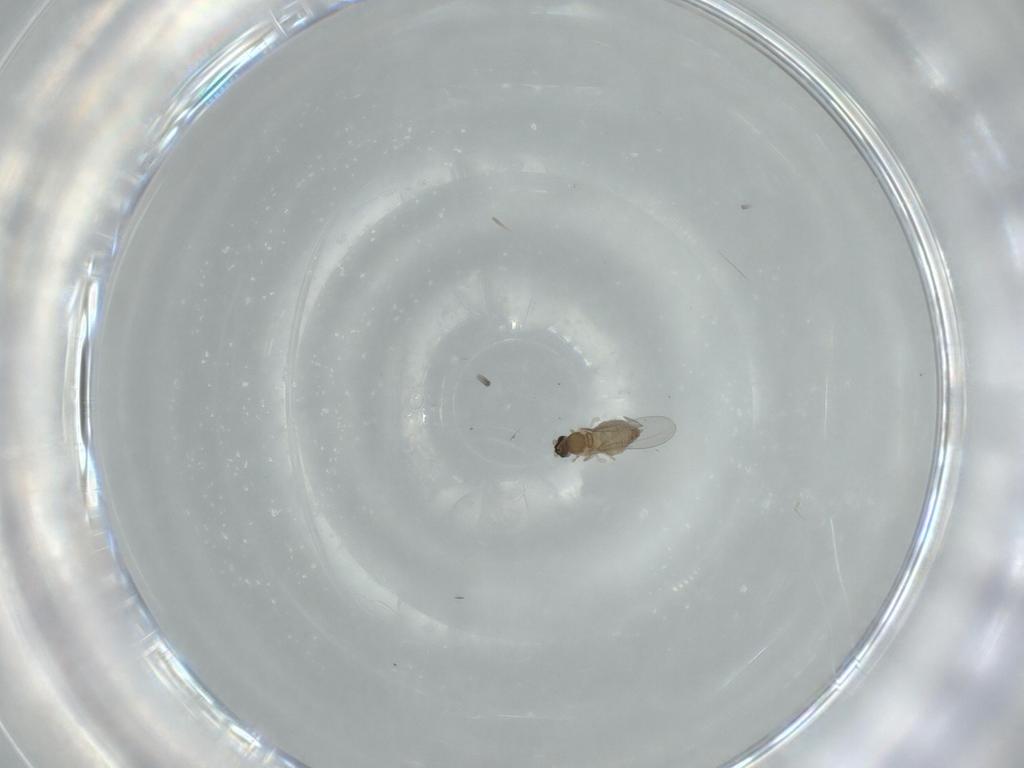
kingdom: Animalia
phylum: Arthropoda
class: Insecta
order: Diptera
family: Cecidomyiidae
